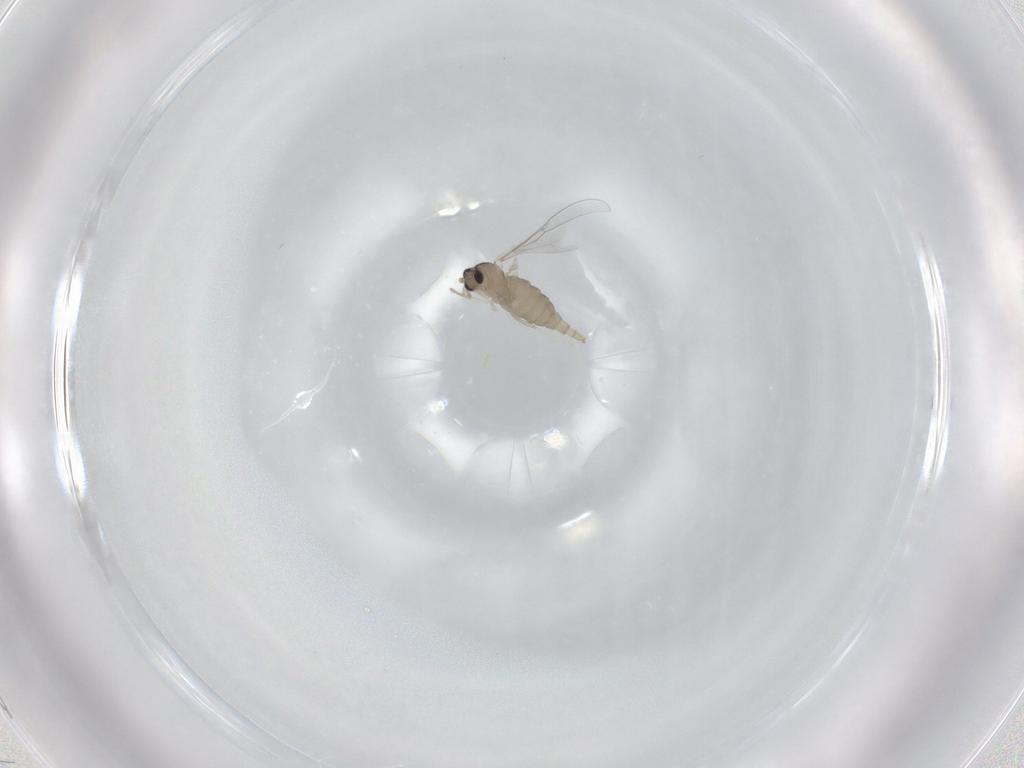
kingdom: Animalia
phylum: Arthropoda
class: Insecta
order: Diptera
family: Cecidomyiidae
